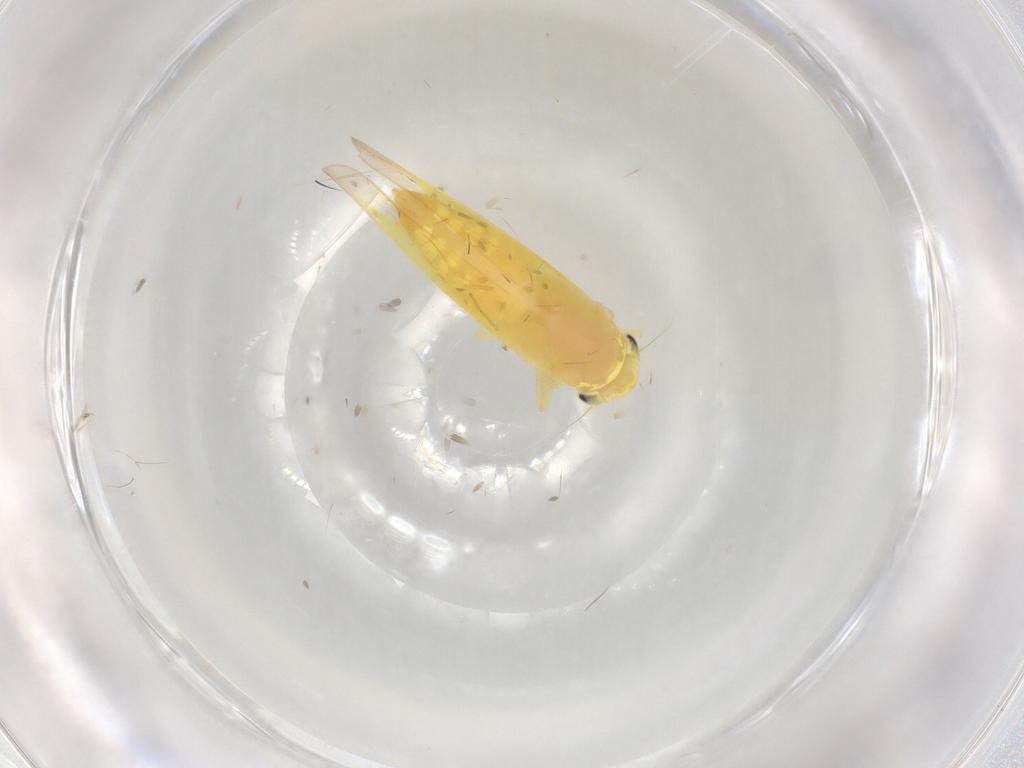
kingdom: Animalia
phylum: Arthropoda
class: Insecta
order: Hemiptera
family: Cicadellidae
